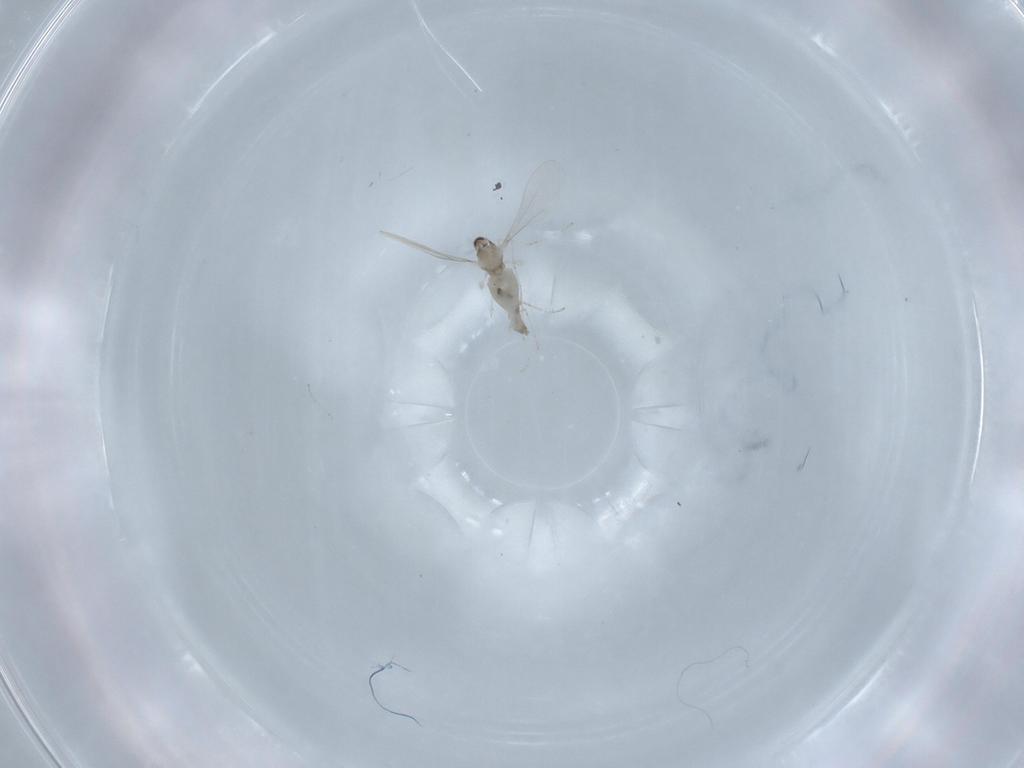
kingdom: Animalia
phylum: Arthropoda
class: Insecta
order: Diptera
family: Cecidomyiidae
